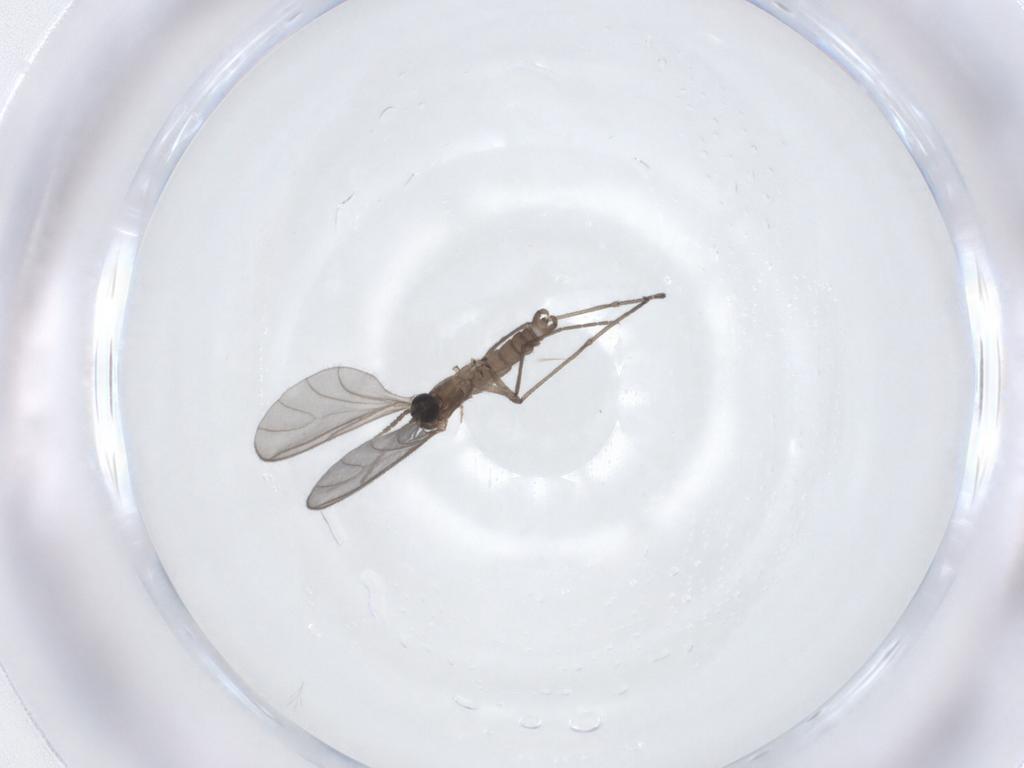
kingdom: Animalia
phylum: Arthropoda
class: Insecta
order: Diptera
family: Sciaridae
